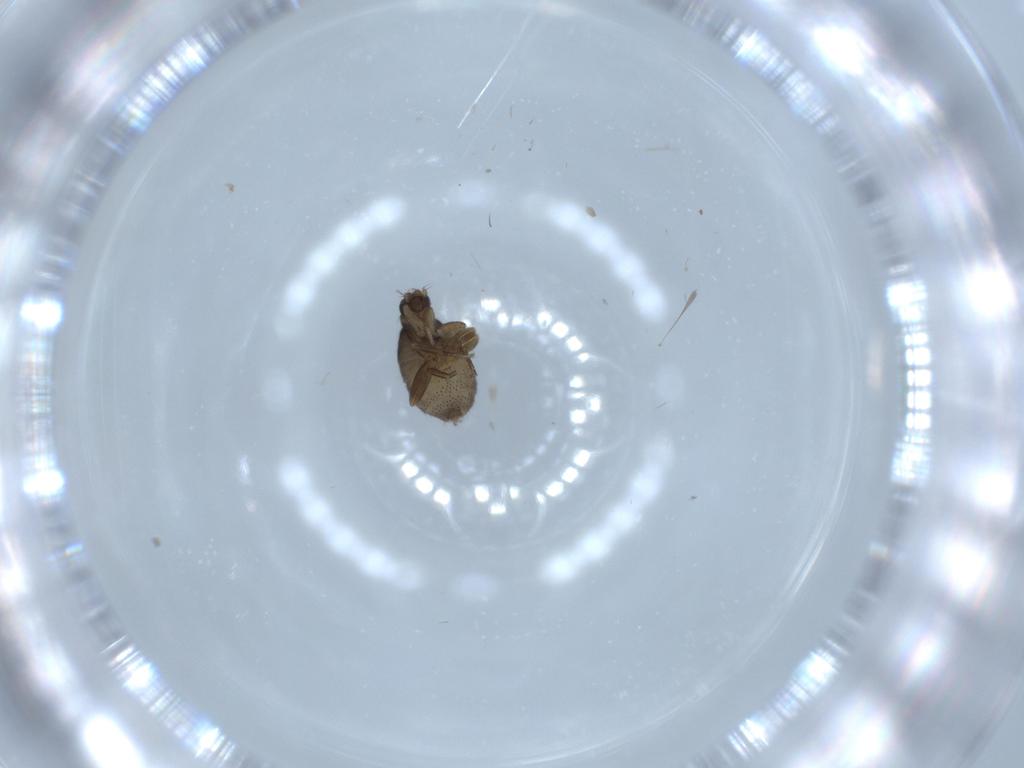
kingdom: Animalia
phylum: Arthropoda
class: Insecta
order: Diptera
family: Phoridae
